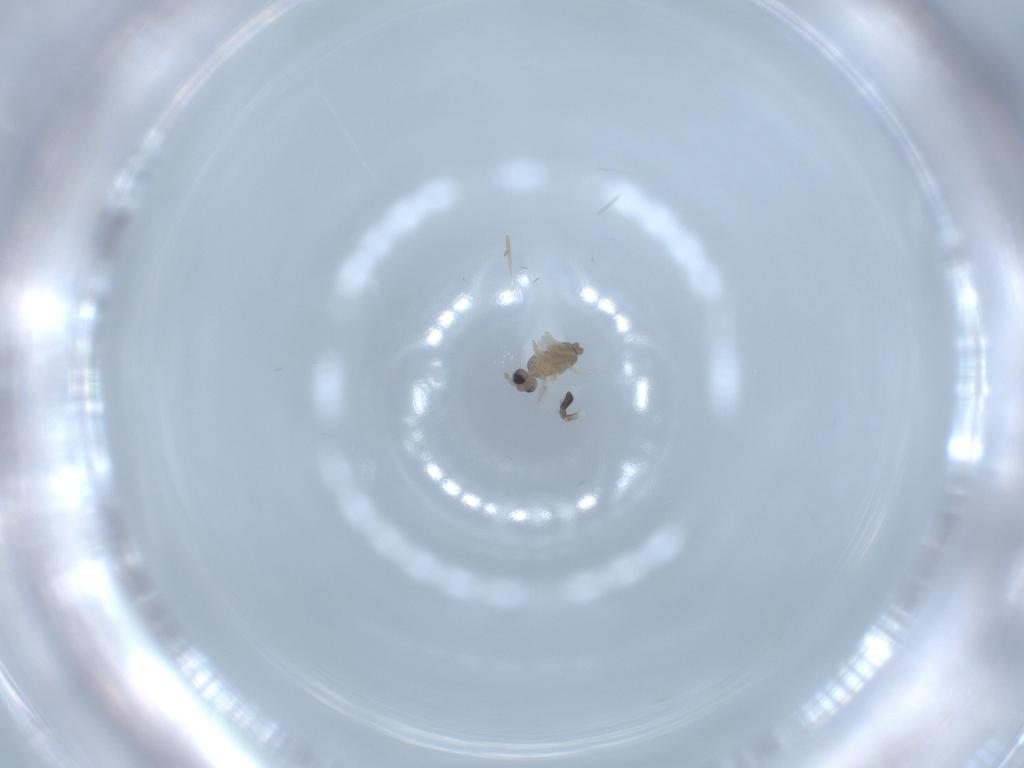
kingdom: Animalia
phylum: Arthropoda
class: Insecta
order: Diptera
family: Cecidomyiidae
